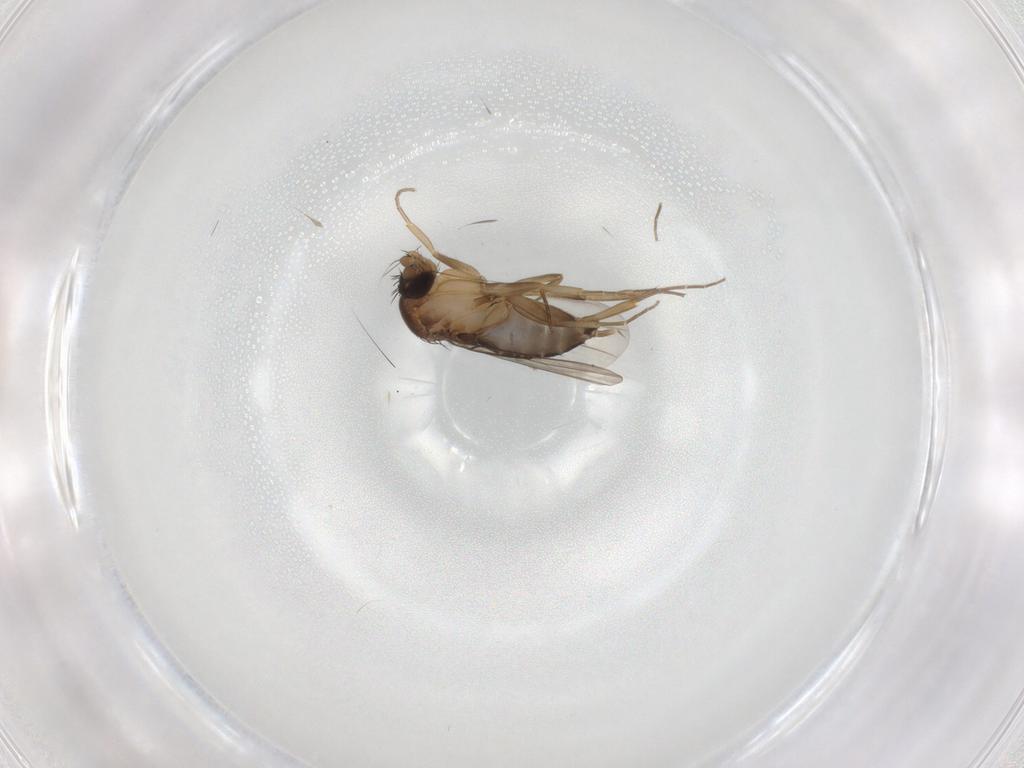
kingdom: Animalia
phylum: Arthropoda
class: Insecta
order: Diptera
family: Phoridae
